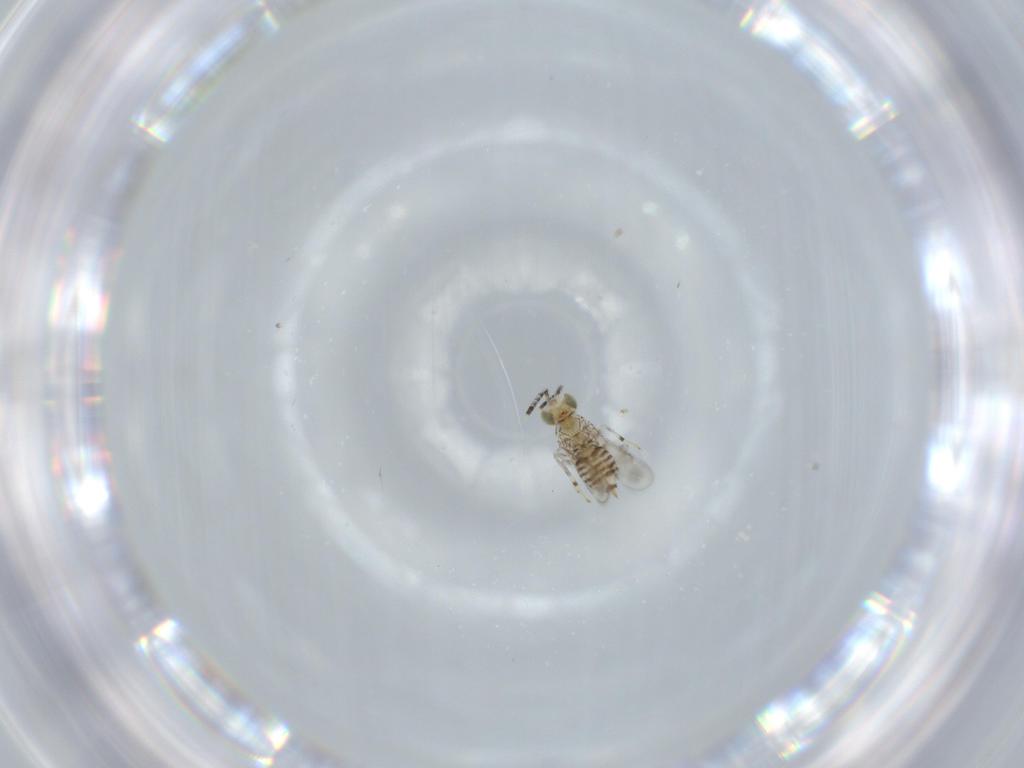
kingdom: Animalia
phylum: Arthropoda
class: Insecta
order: Hymenoptera
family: Aphelinidae
